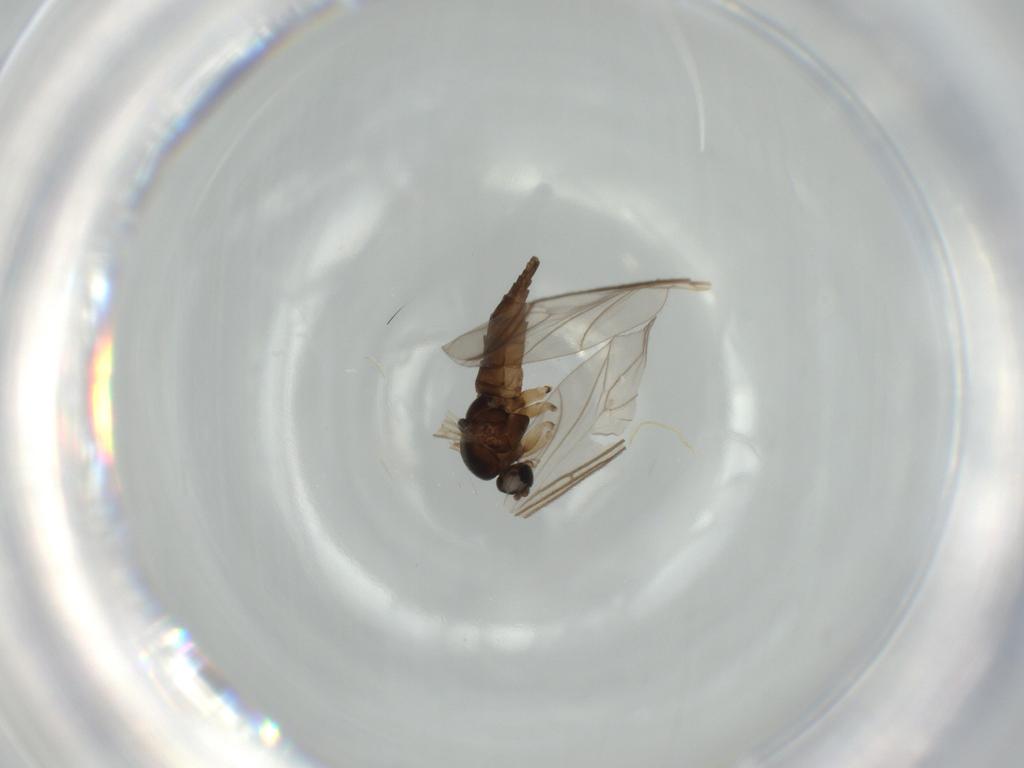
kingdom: Animalia
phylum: Arthropoda
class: Insecta
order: Diptera
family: Sciaridae
